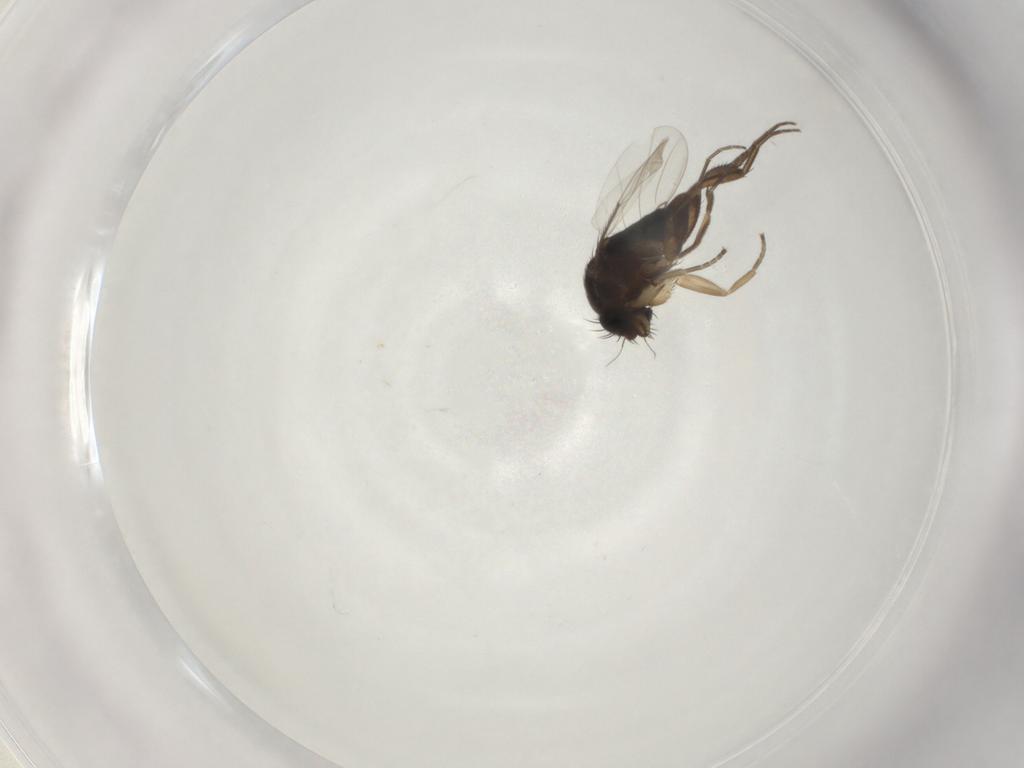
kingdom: Animalia
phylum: Arthropoda
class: Insecta
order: Diptera
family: Phoridae
